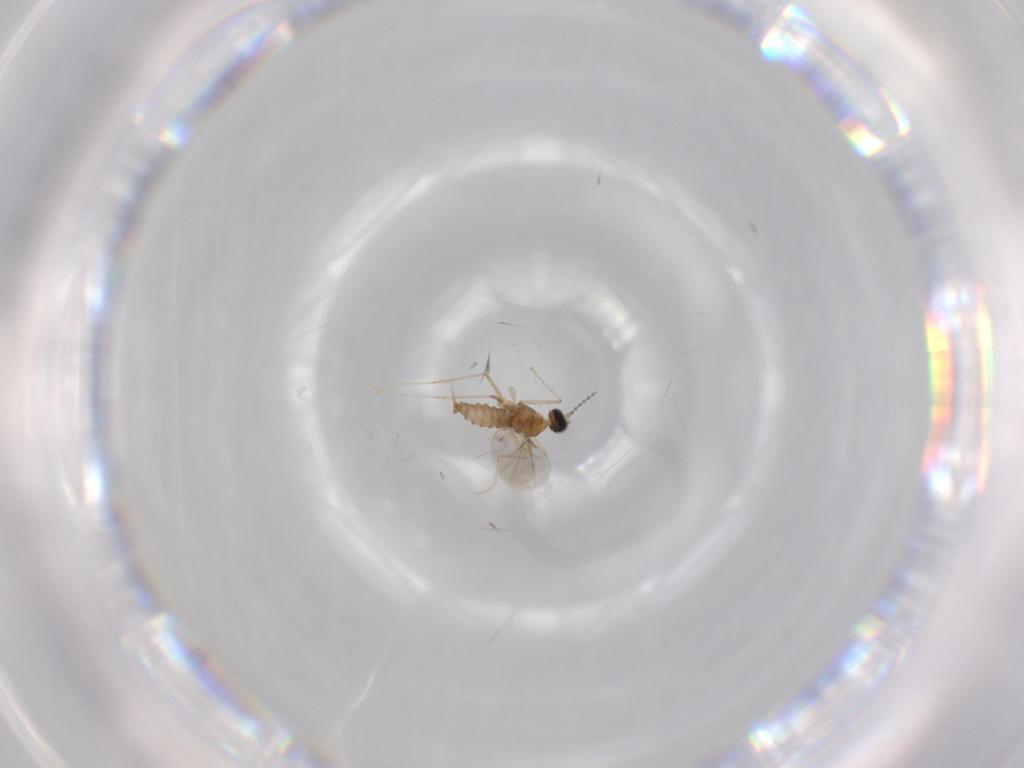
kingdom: Animalia
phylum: Arthropoda
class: Insecta
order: Diptera
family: Cecidomyiidae
